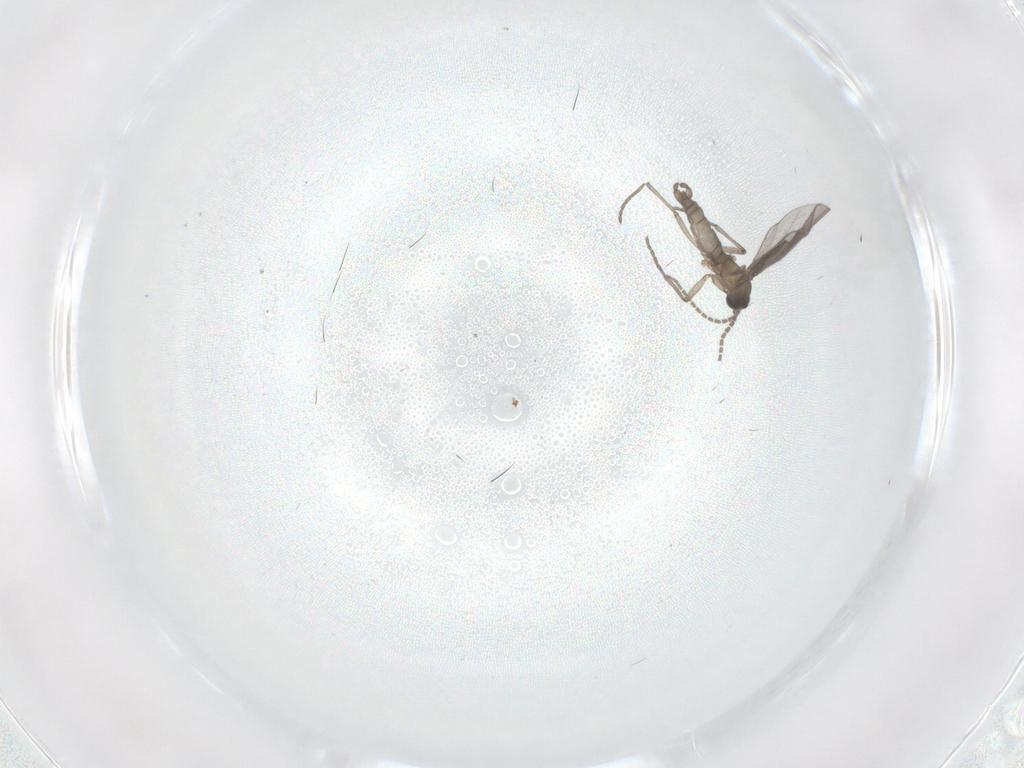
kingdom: Animalia
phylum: Arthropoda
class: Insecta
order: Diptera
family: Sciaridae
